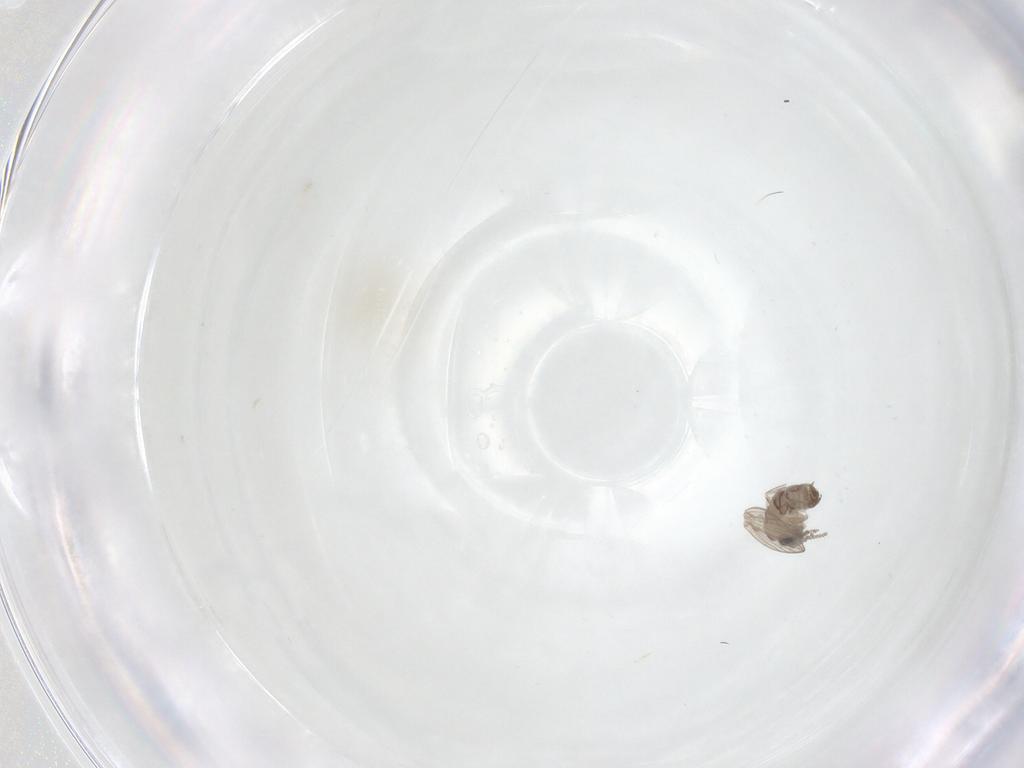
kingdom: Animalia
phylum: Arthropoda
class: Insecta
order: Diptera
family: Psychodidae
